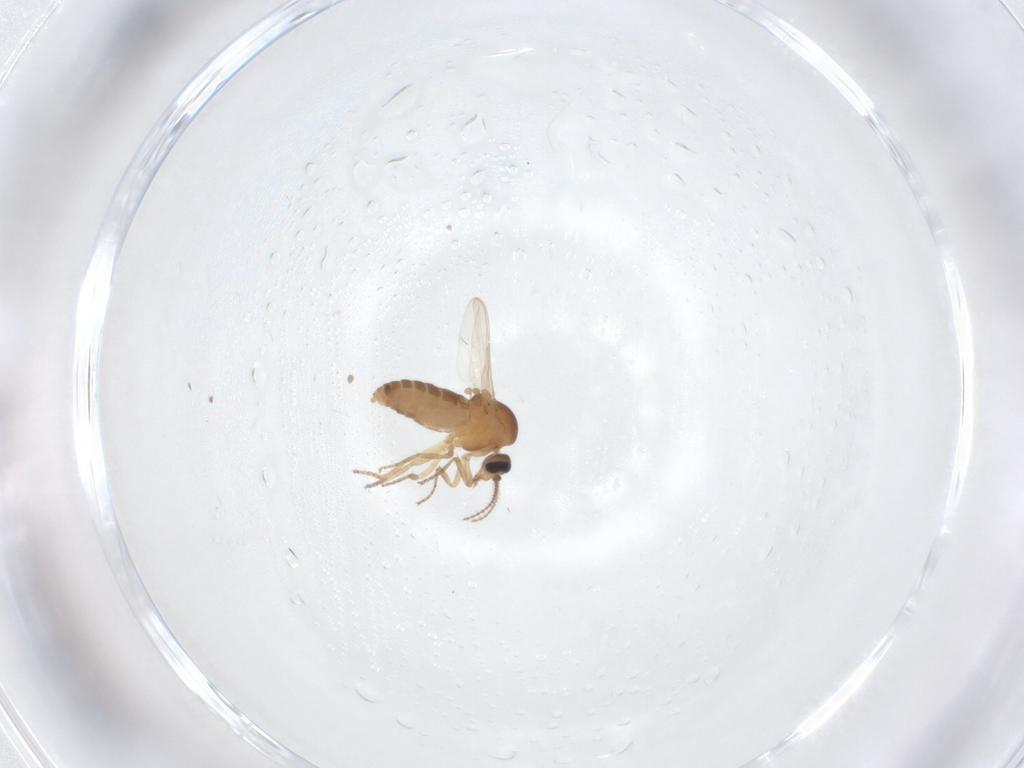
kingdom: Animalia
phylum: Arthropoda
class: Insecta
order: Diptera
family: Ceratopogonidae
